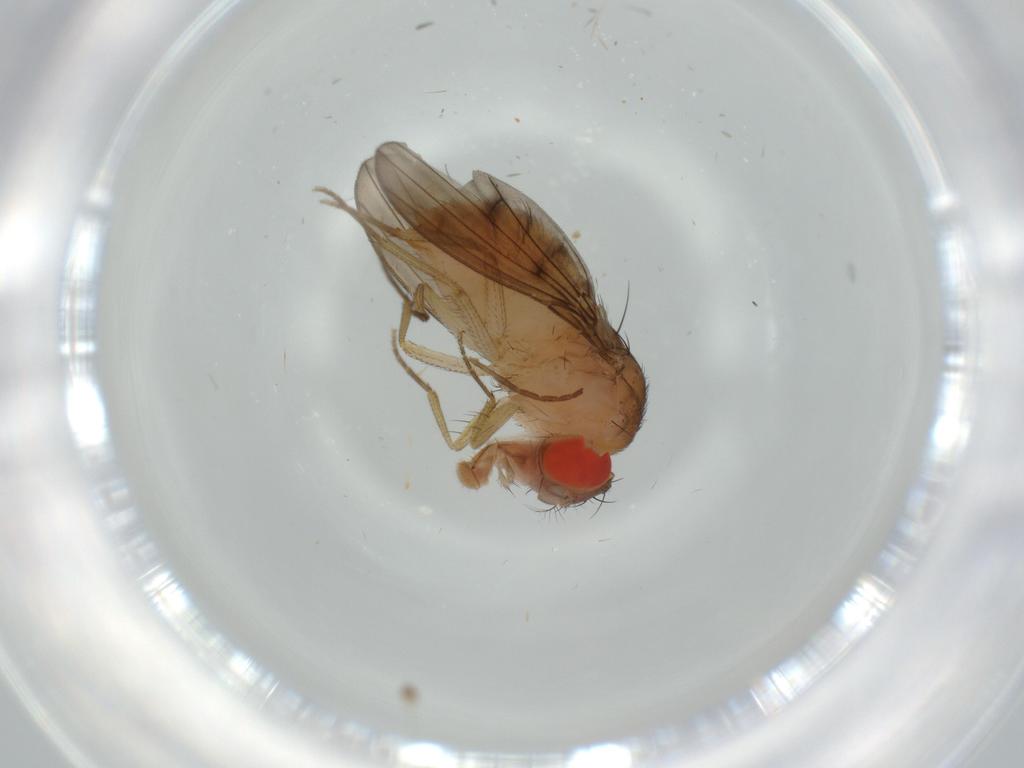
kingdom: Animalia
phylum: Arthropoda
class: Insecta
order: Diptera
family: Drosophilidae
